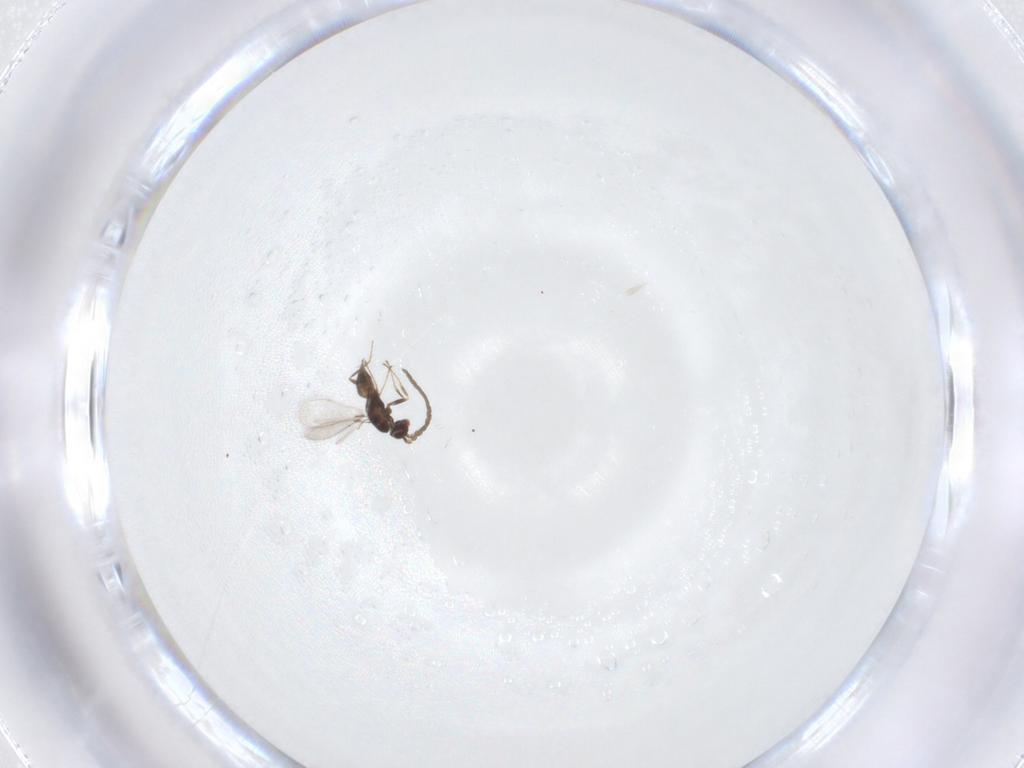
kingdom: Animalia
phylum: Arthropoda
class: Insecta
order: Hymenoptera
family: Mymaridae
